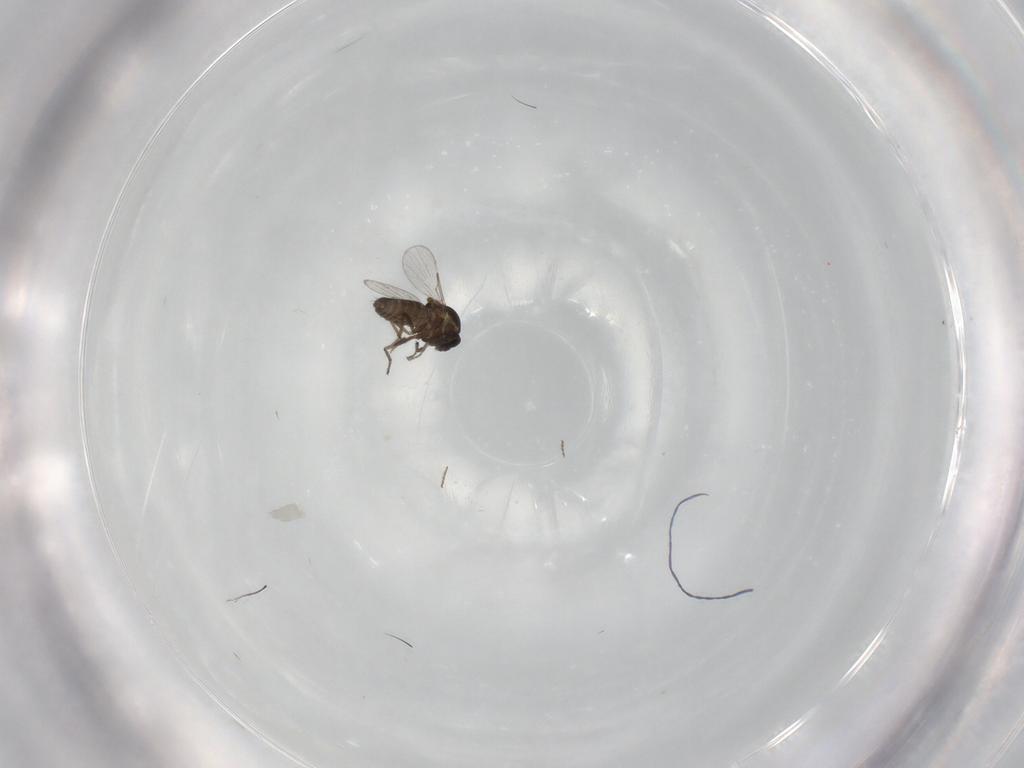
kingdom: Animalia
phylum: Arthropoda
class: Insecta
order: Diptera
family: Ceratopogonidae
